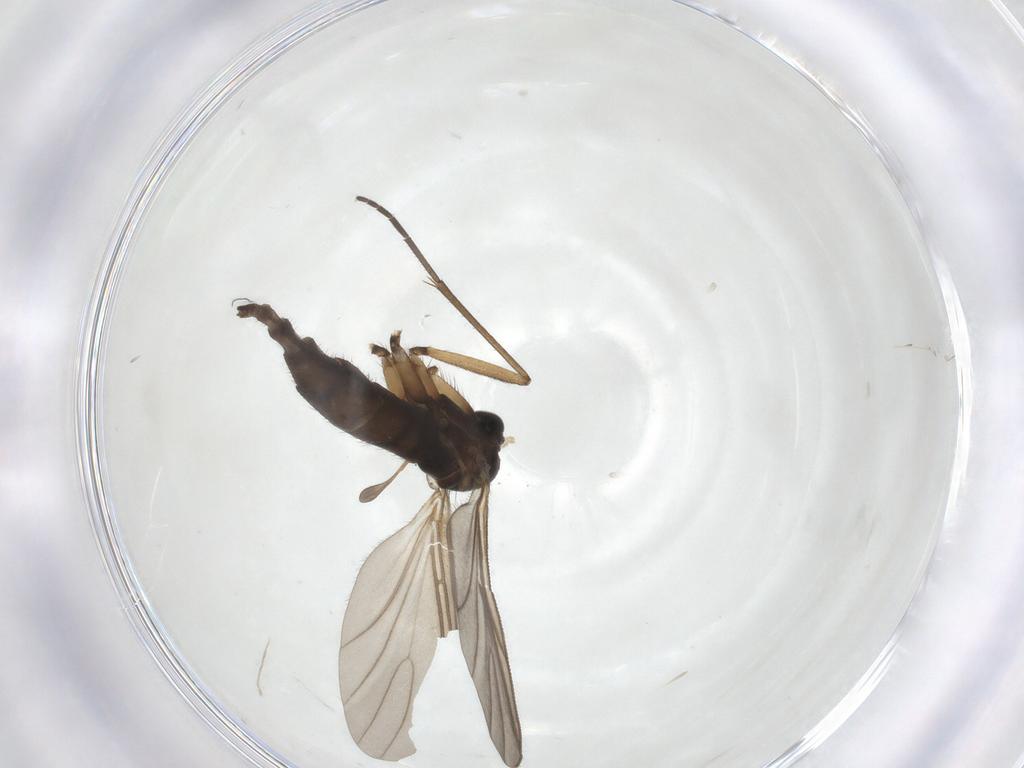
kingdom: Animalia
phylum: Arthropoda
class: Insecta
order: Diptera
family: Sciaridae
